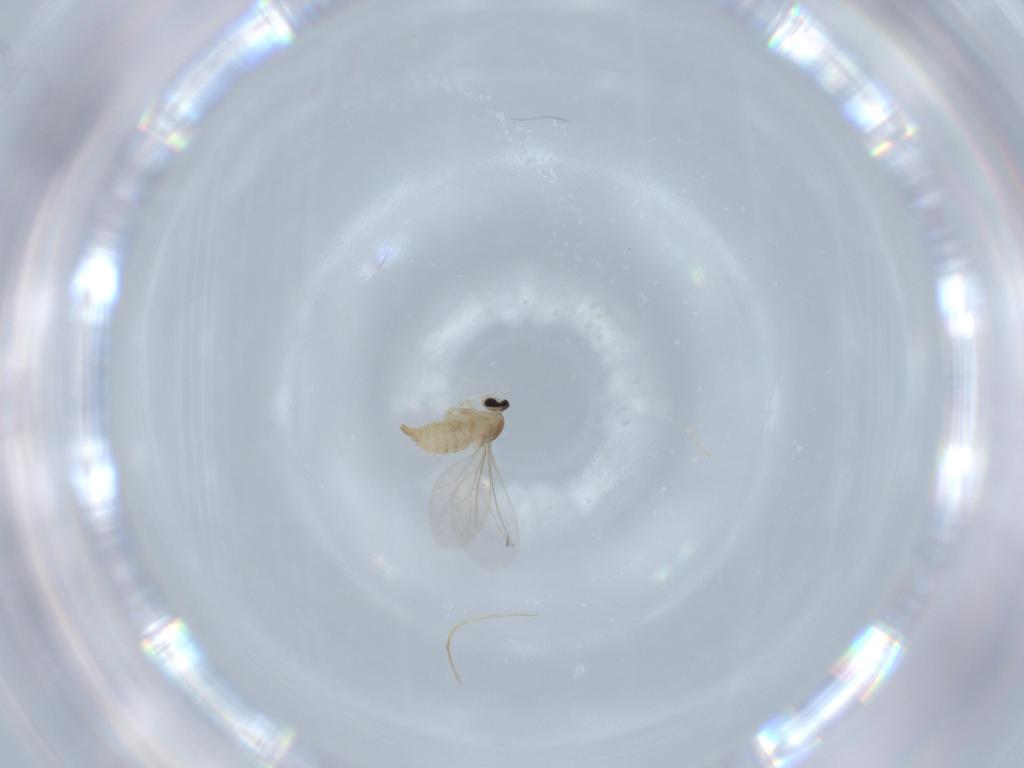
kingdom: Animalia
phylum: Arthropoda
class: Insecta
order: Diptera
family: Cecidomyiidae
